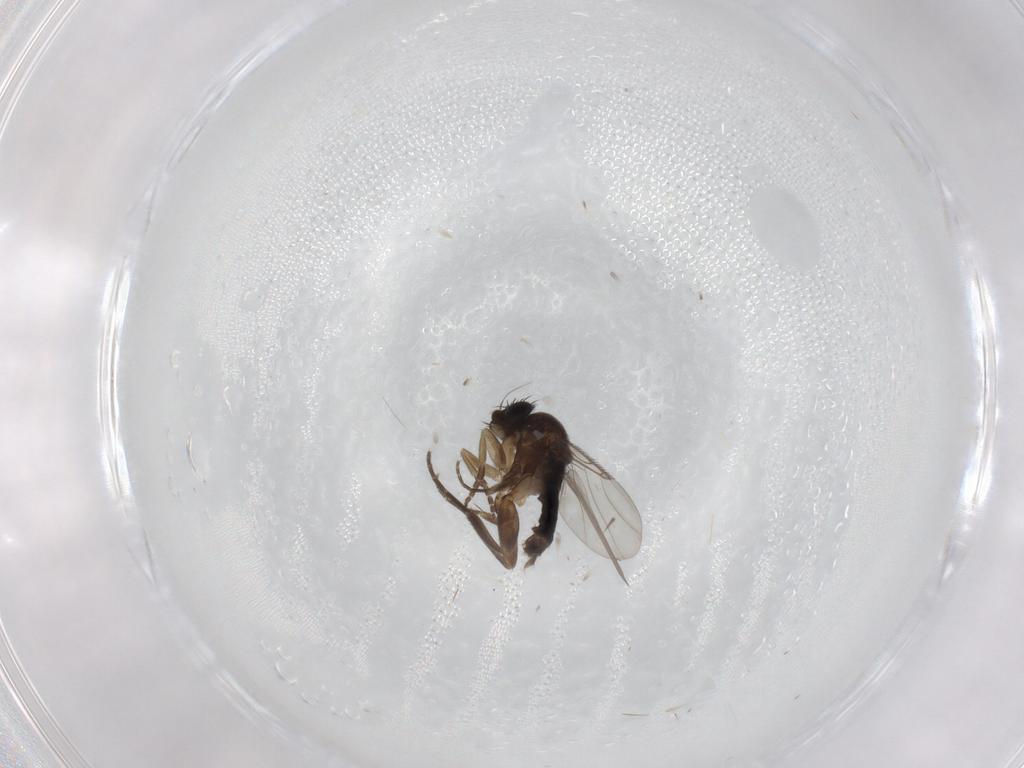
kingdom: Animalia
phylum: Arthropoda
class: Insecta
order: Diptera
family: Phoridae
